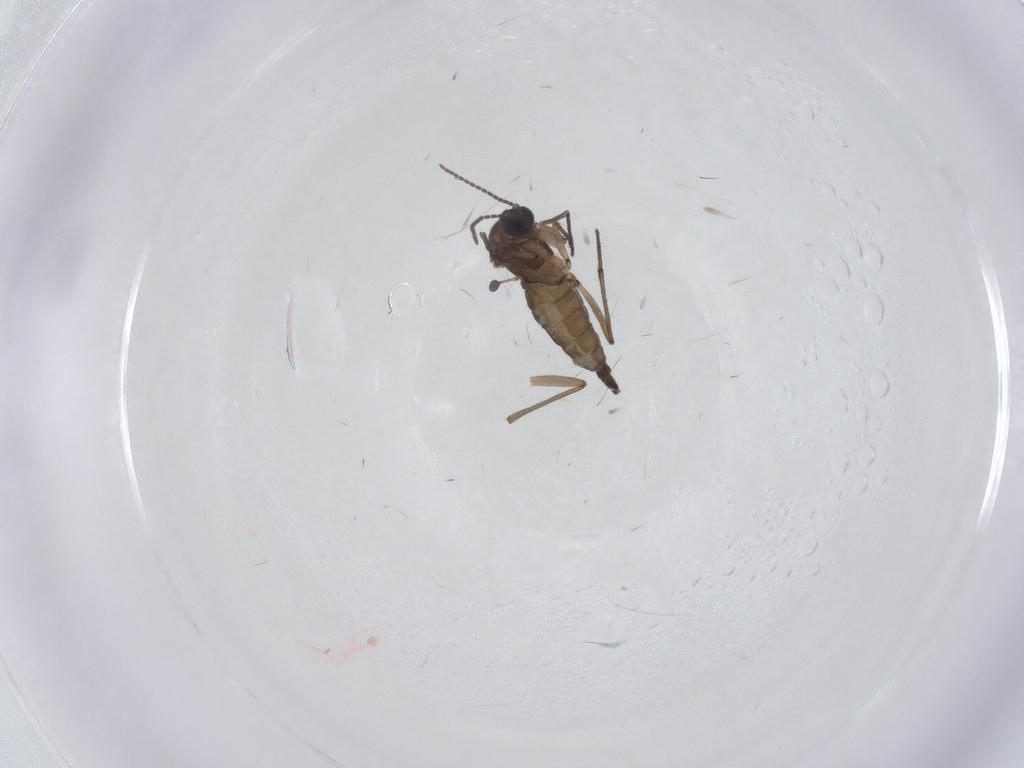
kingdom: Animalia
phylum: Arthropoda
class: Insecta
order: Diptera
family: Sciaridae
